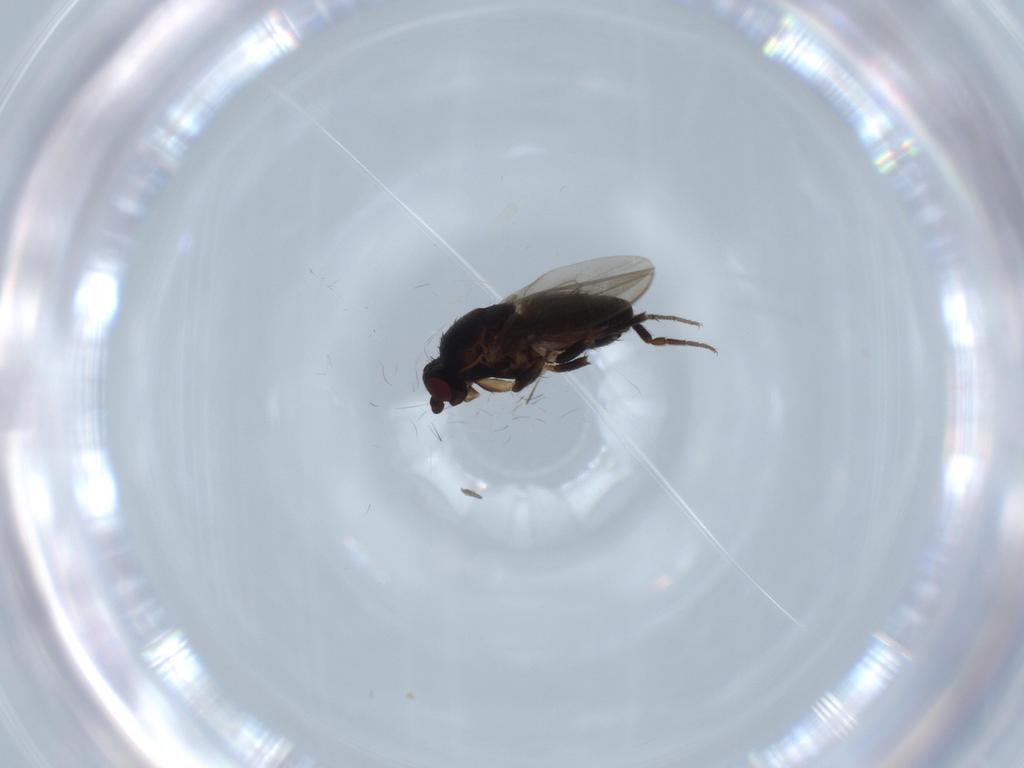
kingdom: Animalia
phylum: Arthropoda
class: Insecta
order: Diptera
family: Sphaeroceridae
